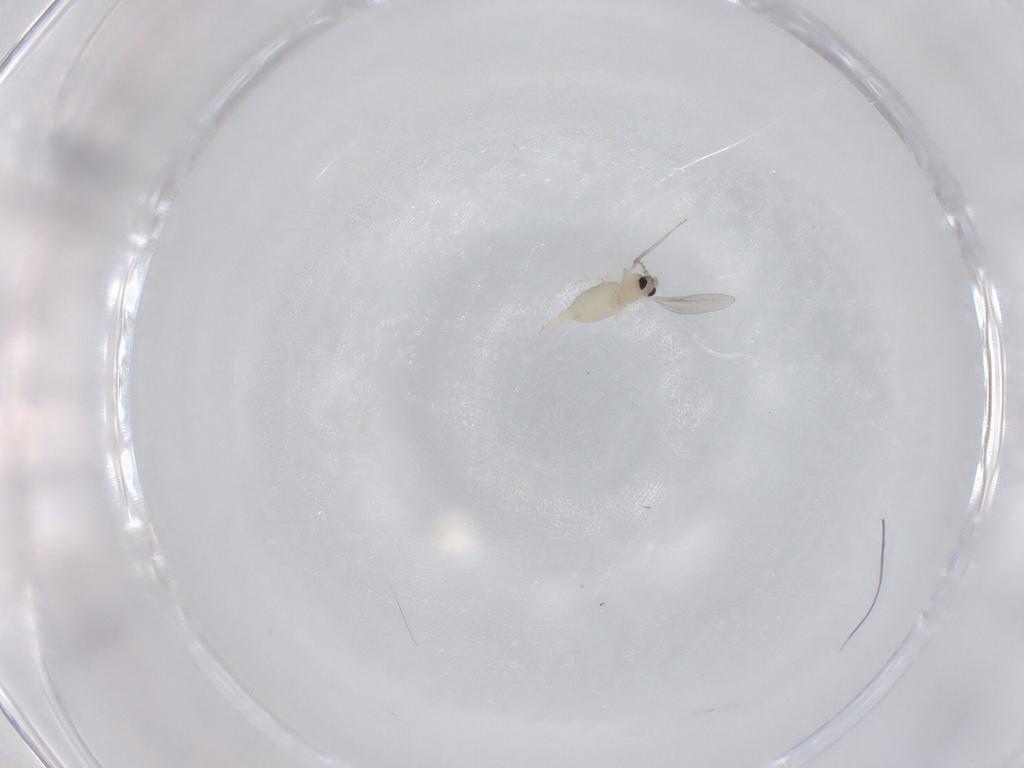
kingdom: Animalia
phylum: Arthropoda
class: Insecta
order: Diptera
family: Cecidomyiidae
